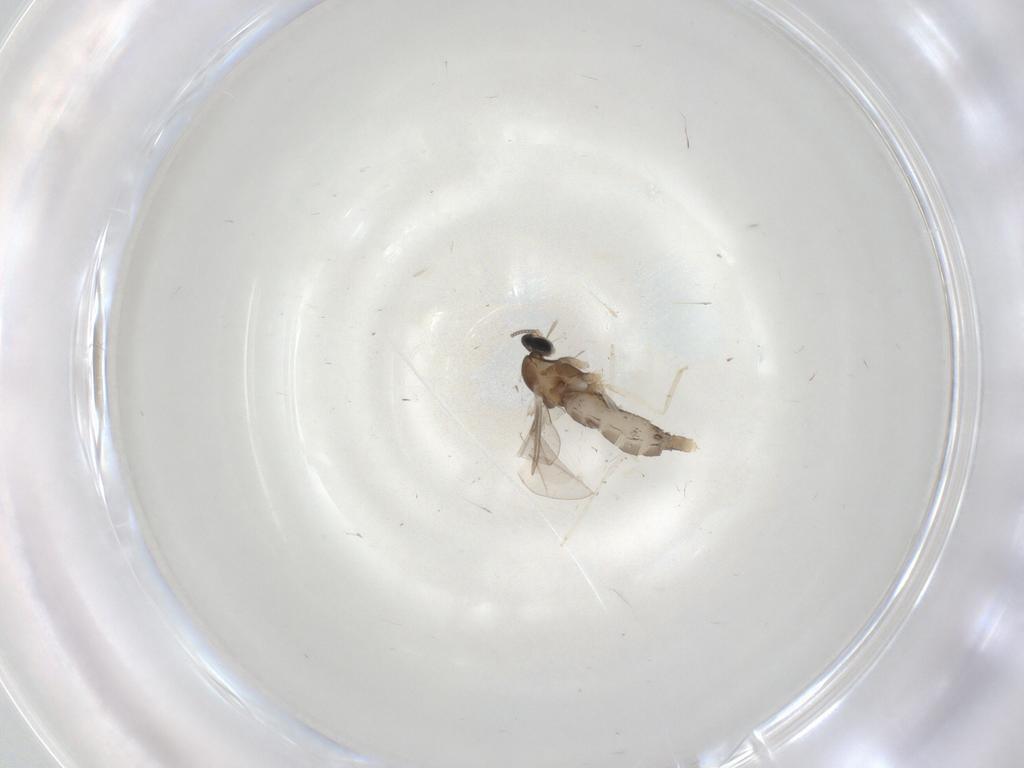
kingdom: Animalia
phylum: Arthropoda
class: Insecta
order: Diptera
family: Cecidomyiidae
